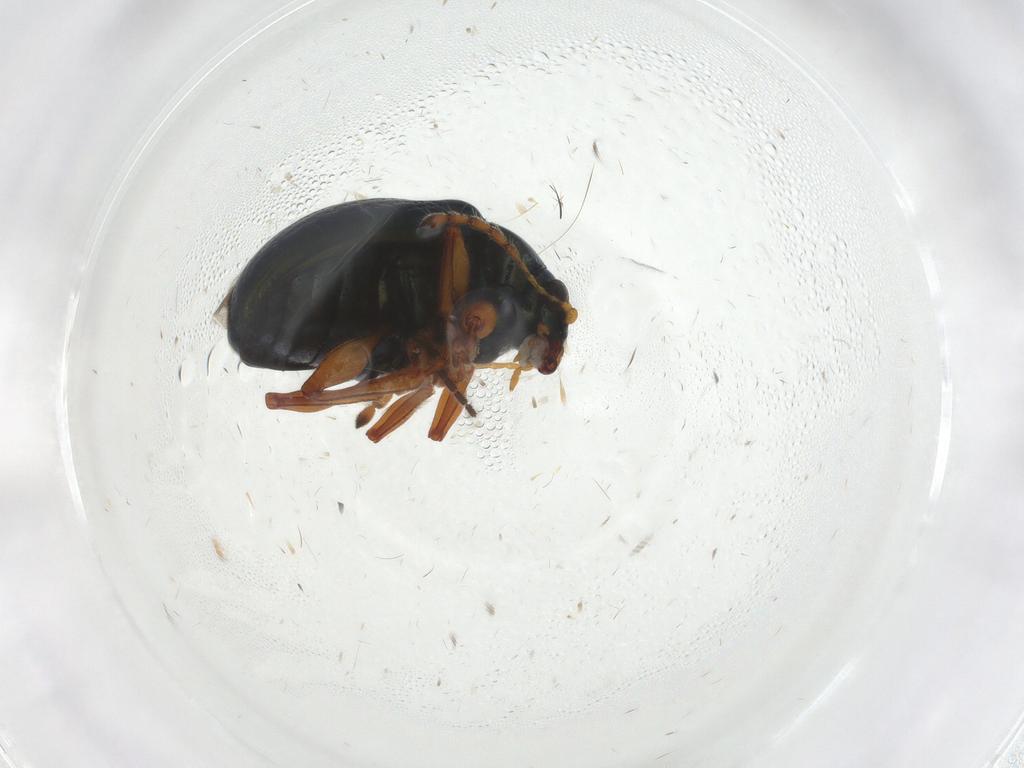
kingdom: Animalia
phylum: Arthropoda
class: Insecta
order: Coleoptera
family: Chrysomelidae
